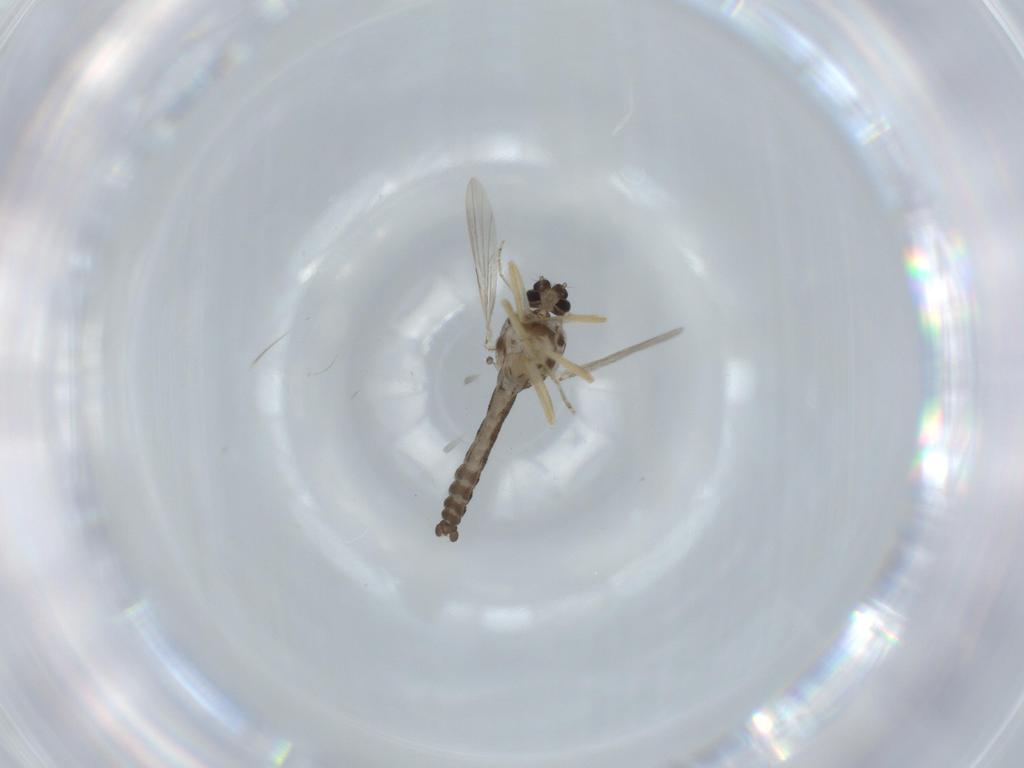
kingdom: Animalia
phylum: Arthropoda
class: Insecta
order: Diptera
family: Ceratopogonidae
